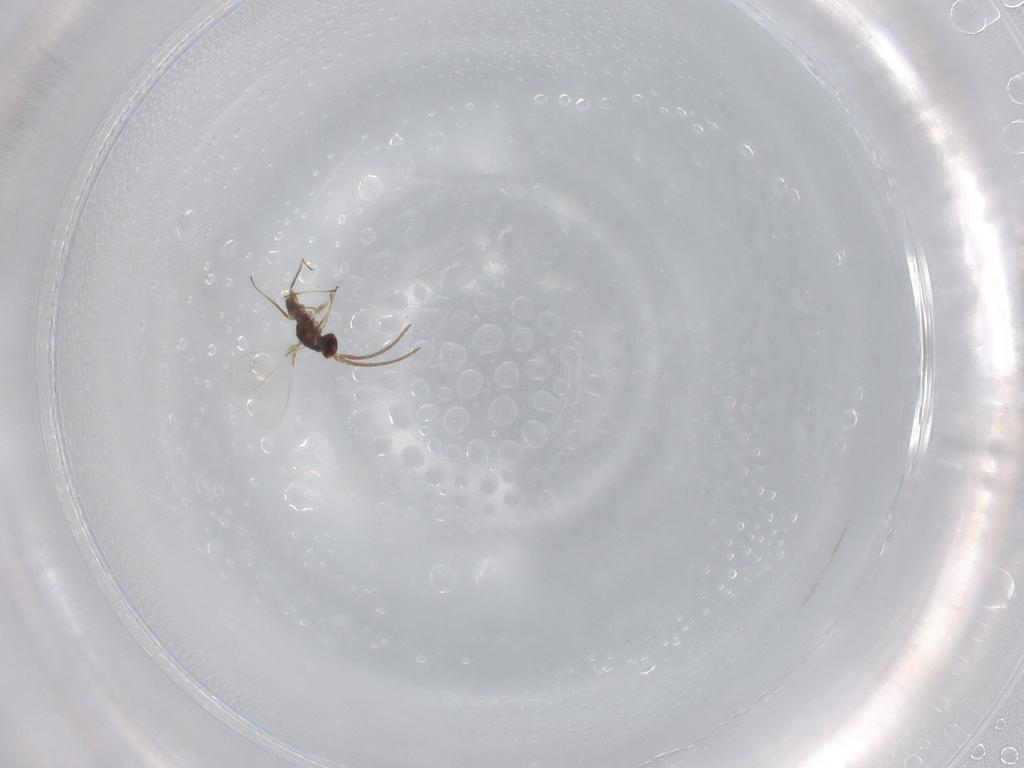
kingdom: Animalia
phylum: Arthropoda
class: Insecta
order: Hymenoptera
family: Mymaridae
